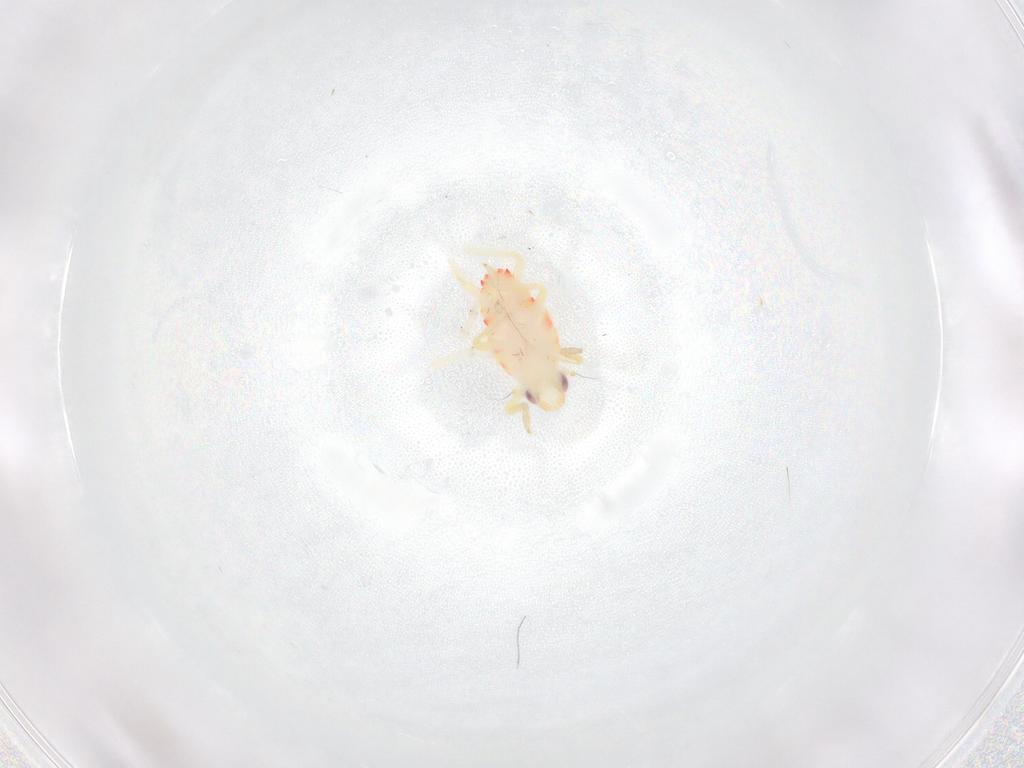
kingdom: Animalia
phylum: Arthropoda
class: Insecta
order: Hemiptera
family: Tropiduchidae
